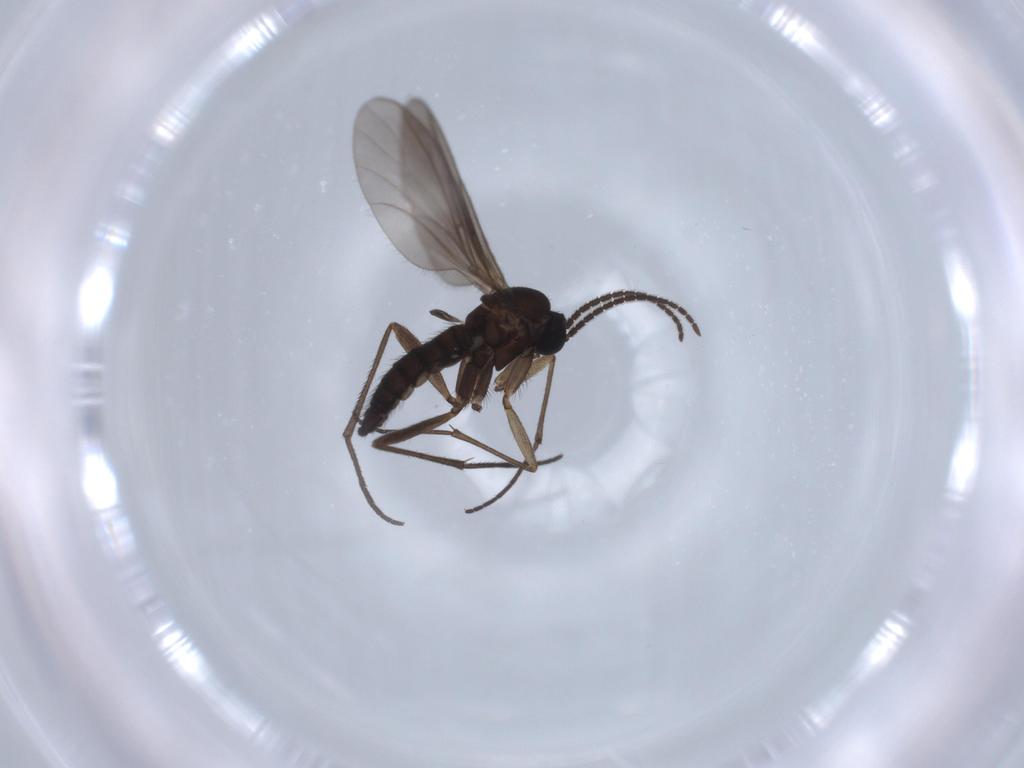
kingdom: Animalia
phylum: Arthropoda
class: Insecta
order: Diptera
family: Sciaridae
